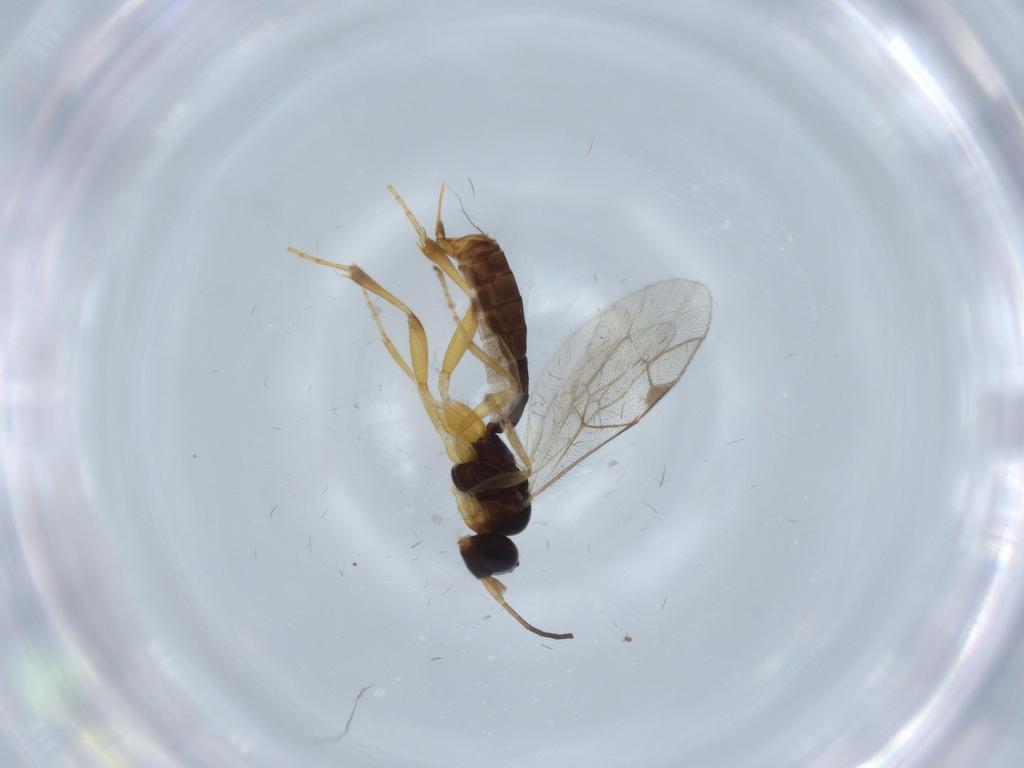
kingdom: Animalia
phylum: Arthropoda
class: Insecta
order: Hymenoptera
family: Ichneumonidae
